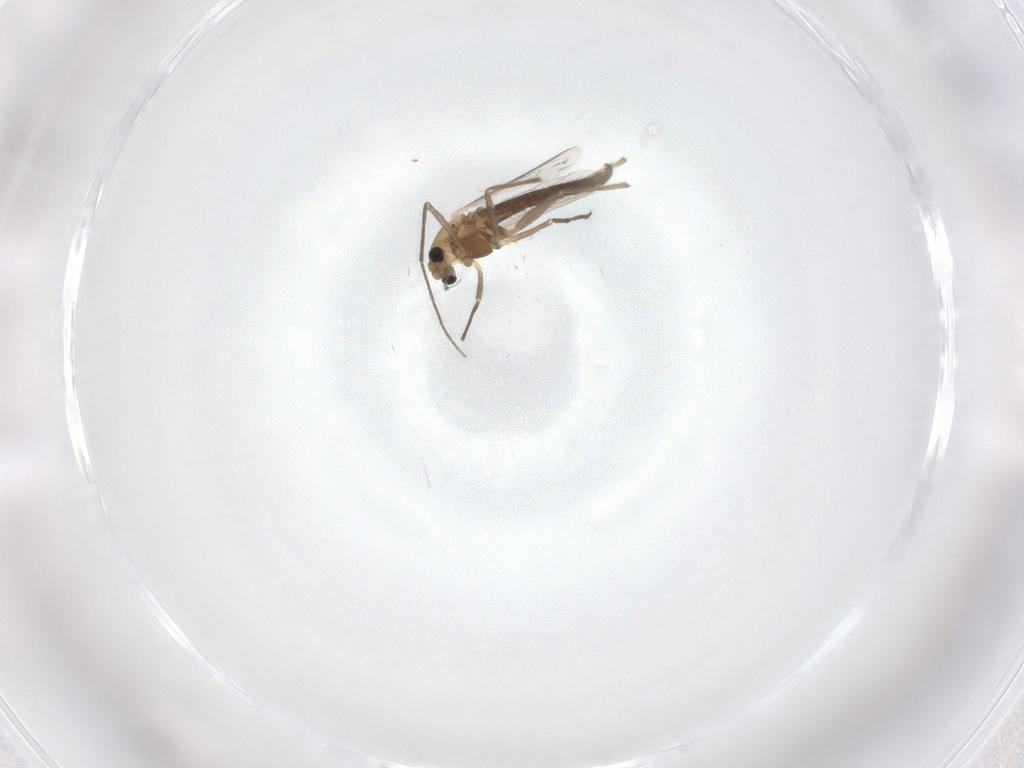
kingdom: Animalia
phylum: Arthropoda
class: Insecta
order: Diptera
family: Chironomidae
